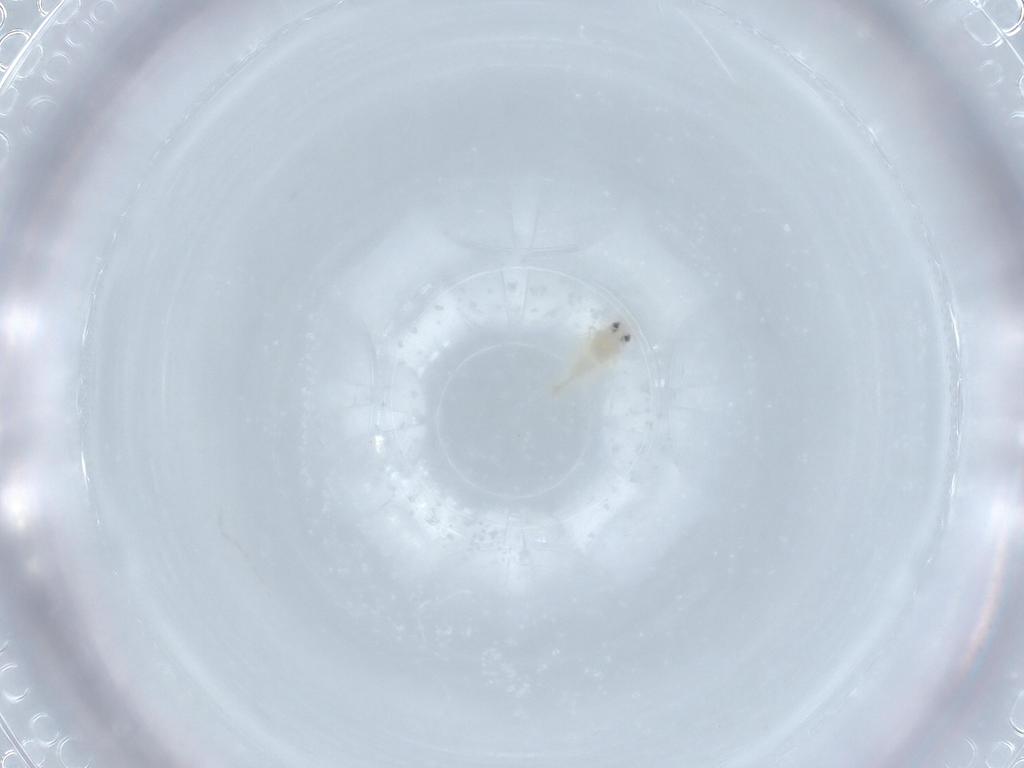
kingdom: Animalia
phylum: Arthropoda
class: Insecta
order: Hemiptera
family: Aleyrodidae
